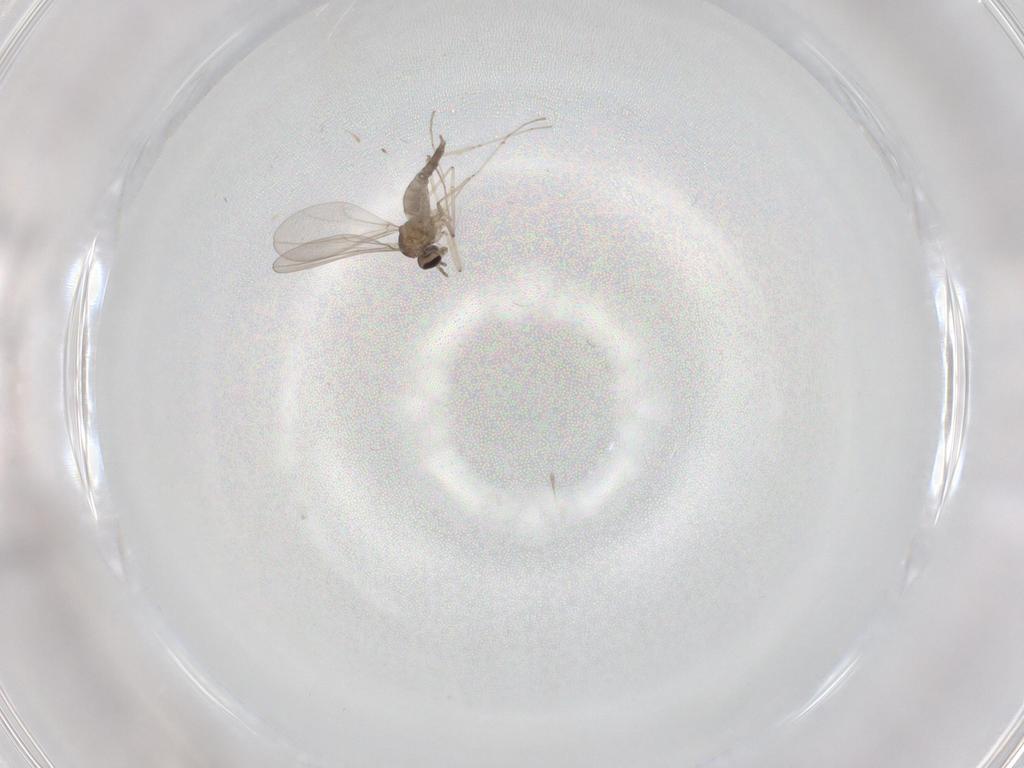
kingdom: Animalia
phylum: Arthropoda
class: Insecta
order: Diptera
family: Cecidomyiidae
